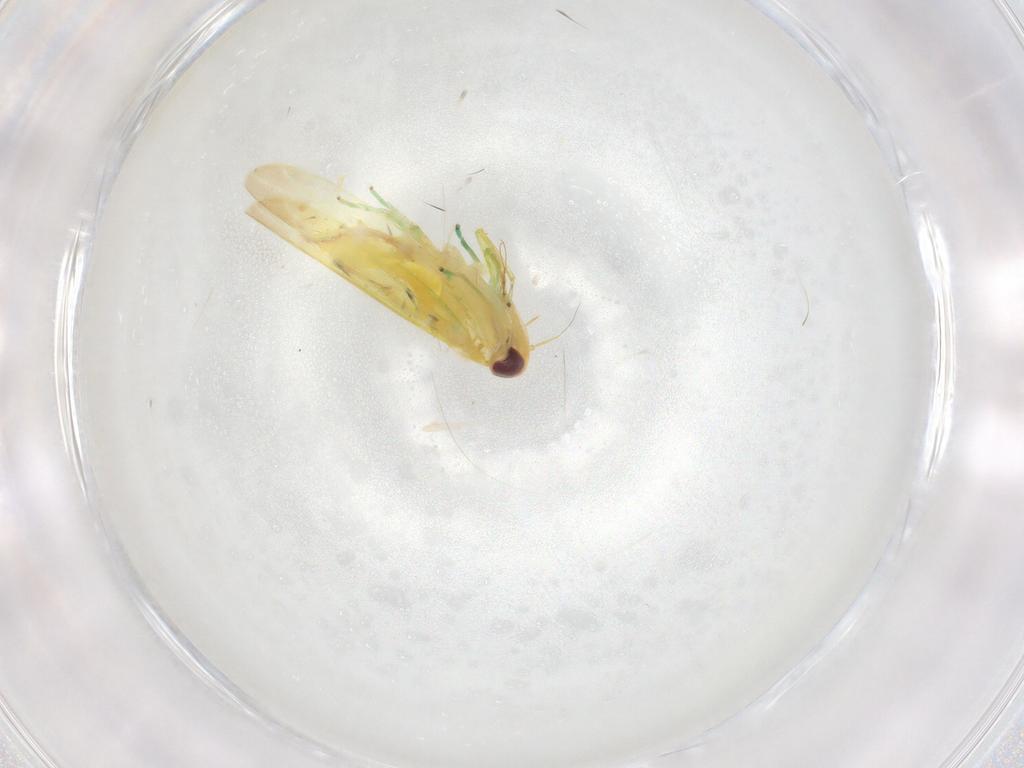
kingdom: Animalia
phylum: Arthropoda
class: Insecta
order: Hemiptera
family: Cicadellidae
